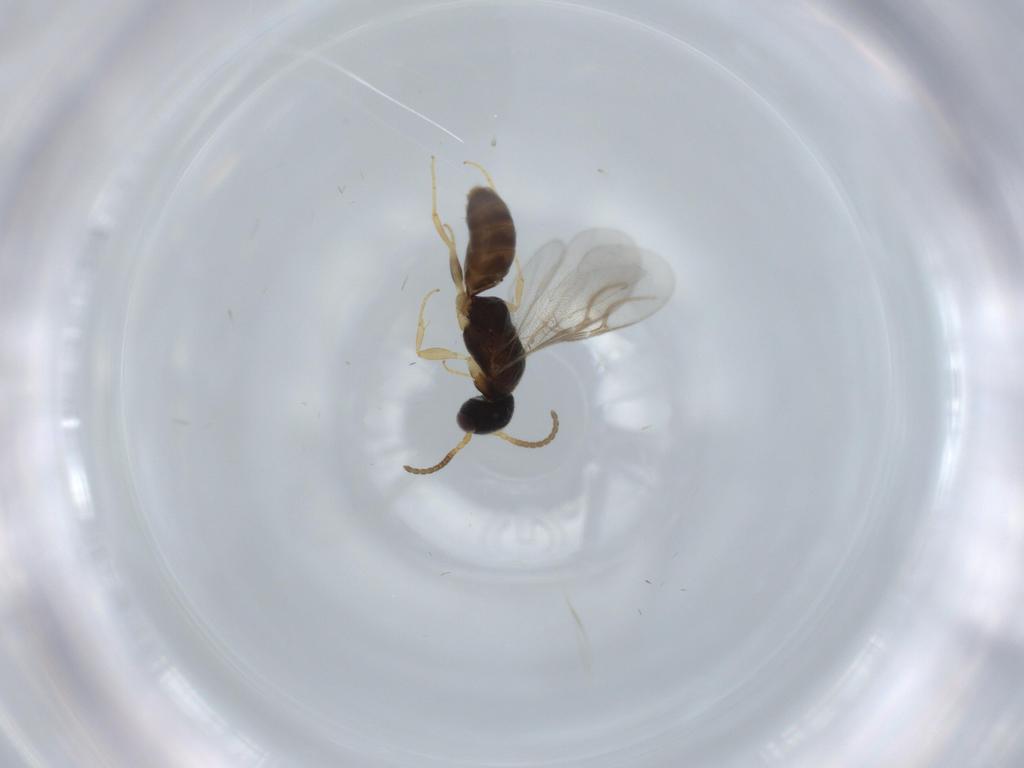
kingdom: Animalia
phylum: Arthropoda
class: Insecta
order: Hymenoptera
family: Bethylidae
